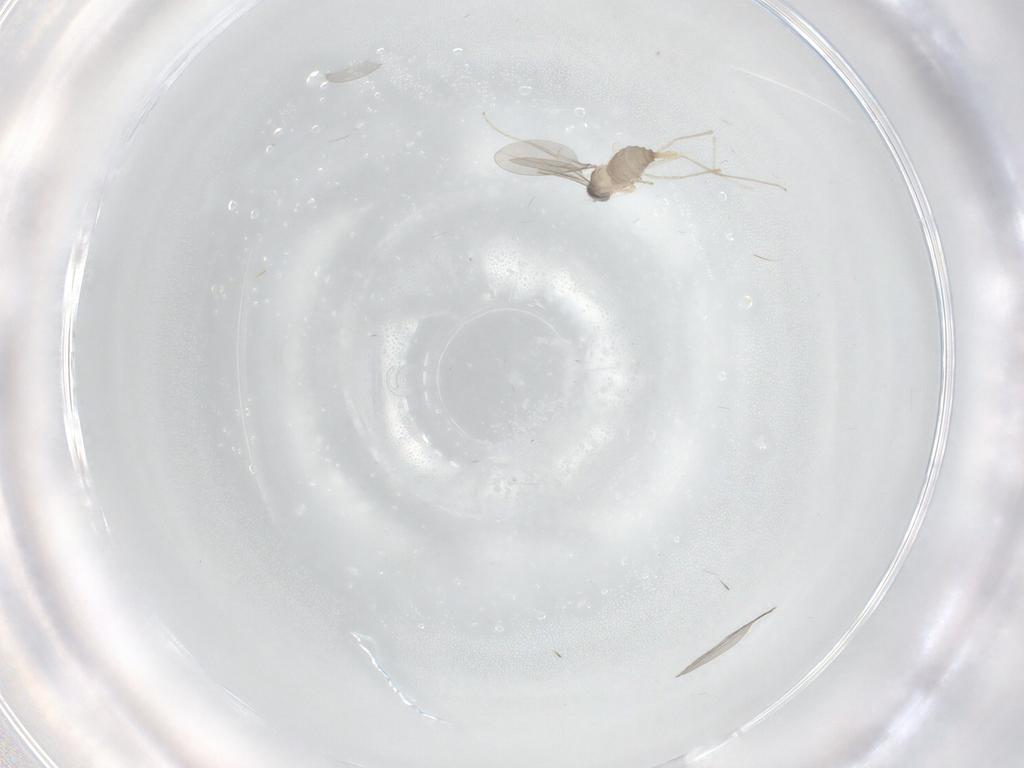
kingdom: Animalia
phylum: Arthropoda
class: Insecta
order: Diptera
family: Cecidomyiidae
